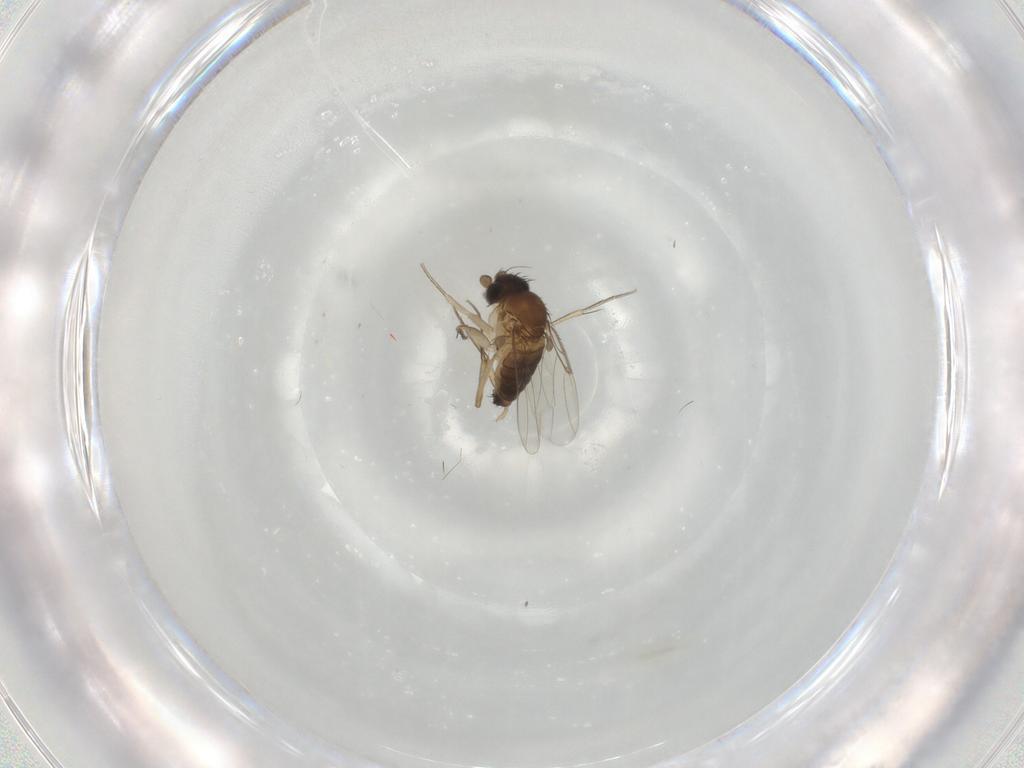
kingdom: Animalia
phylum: Arthropoda
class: Insecta
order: Diptera
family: Phoridae
